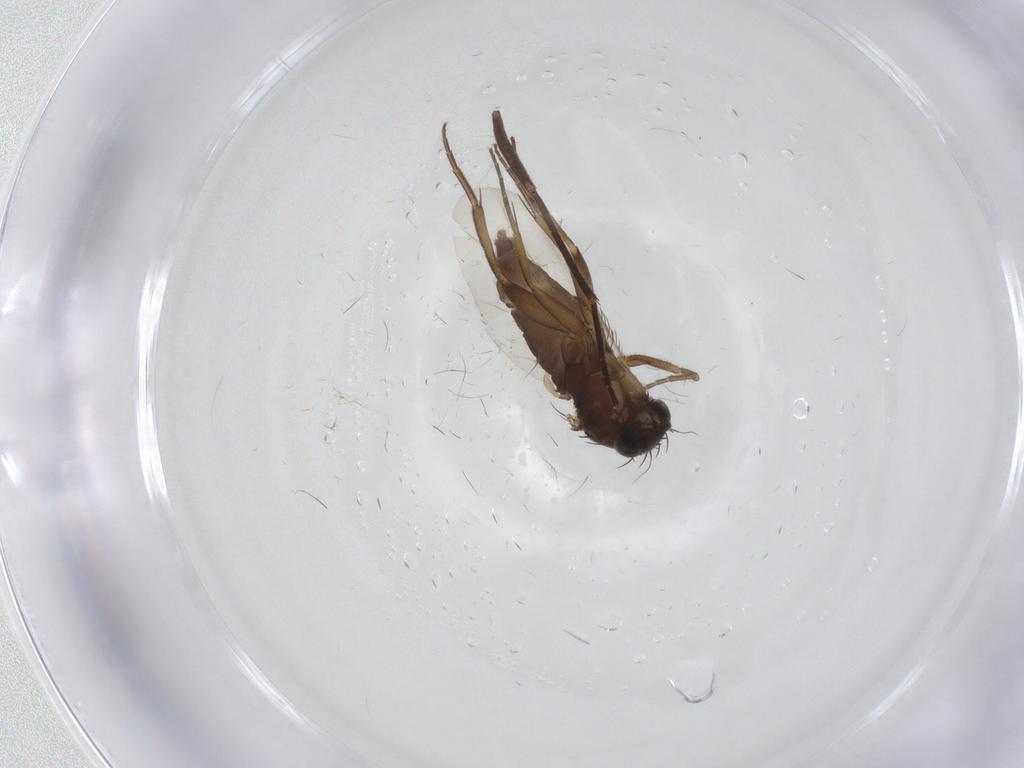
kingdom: Animalia
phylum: Arthropoda
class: Insecta
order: Diptera
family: Phoridae
